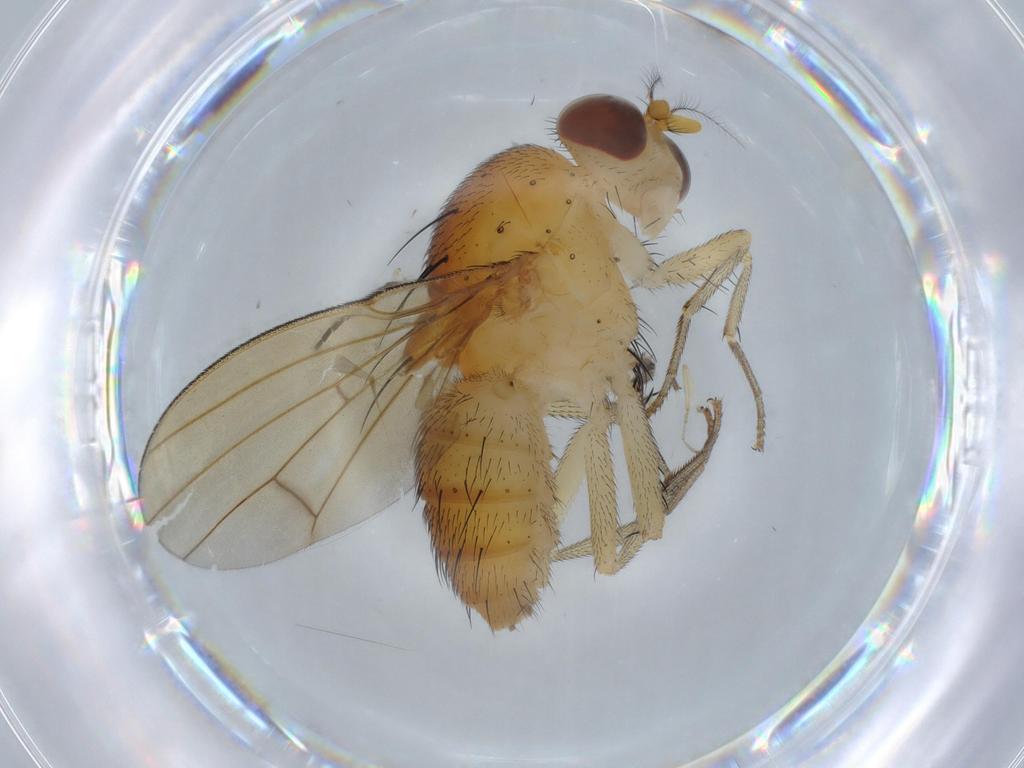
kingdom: Animalia
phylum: Arthropoda
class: Insecta
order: Diptera
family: Lauxaniidae
